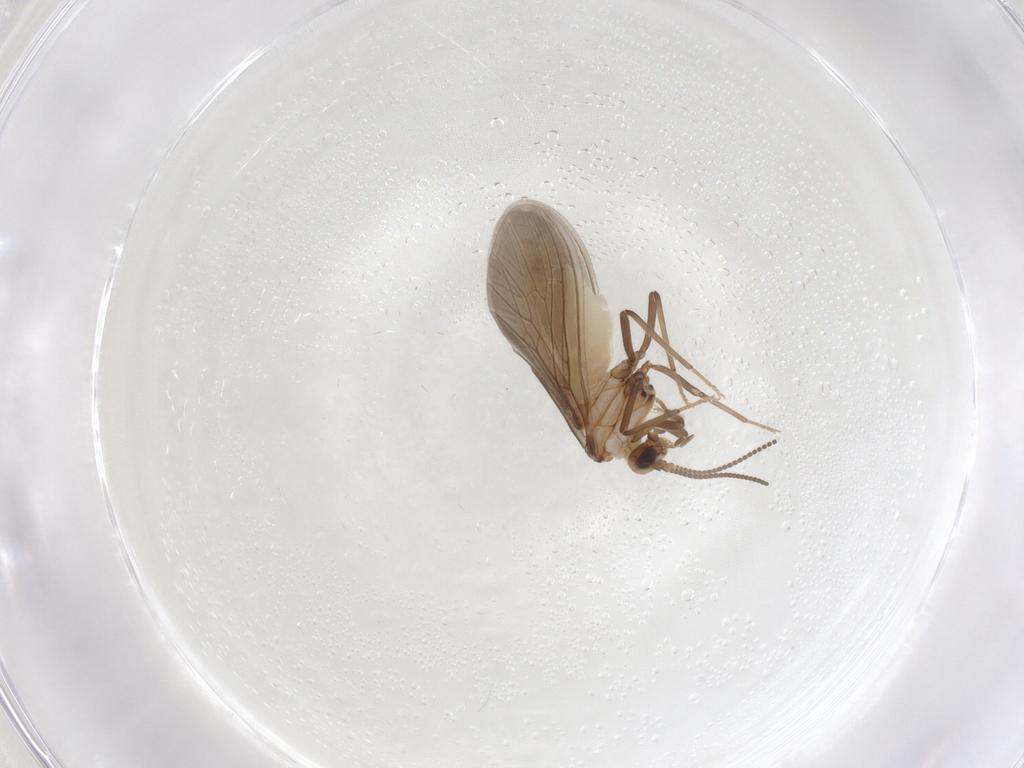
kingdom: Animalia
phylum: Arthropoda
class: Insecta
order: Neuroptera
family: Coniopterygidae
